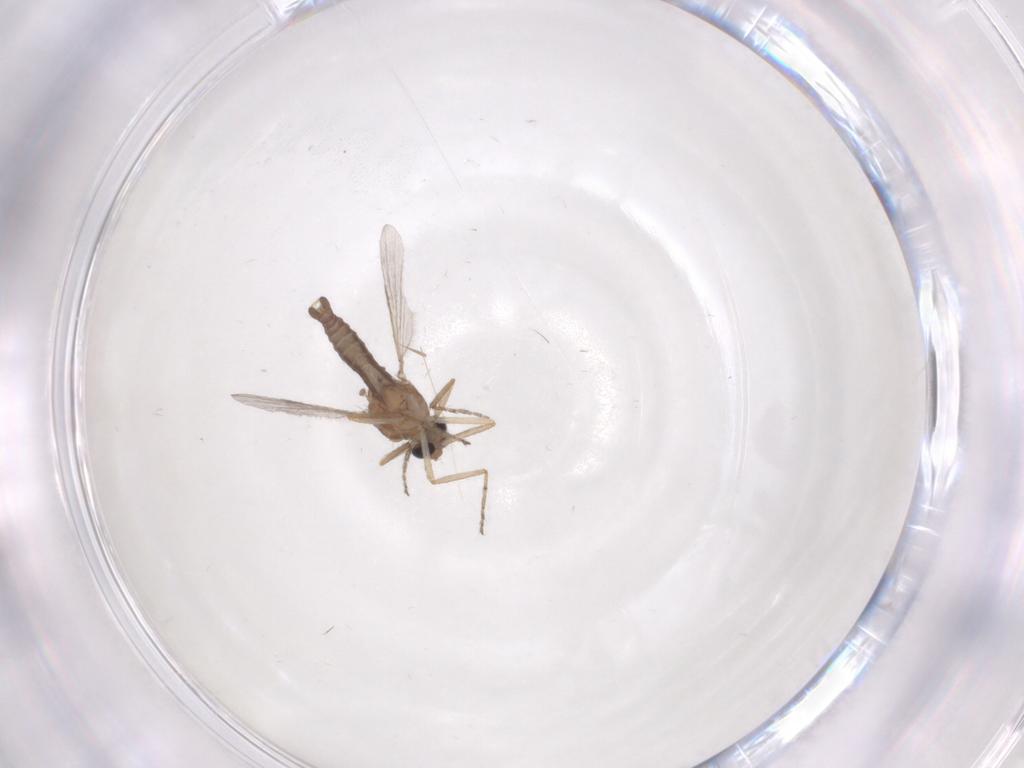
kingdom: Animalia
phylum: Arthropoda
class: Insecta
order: Diptera
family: Ceratopogonidae
